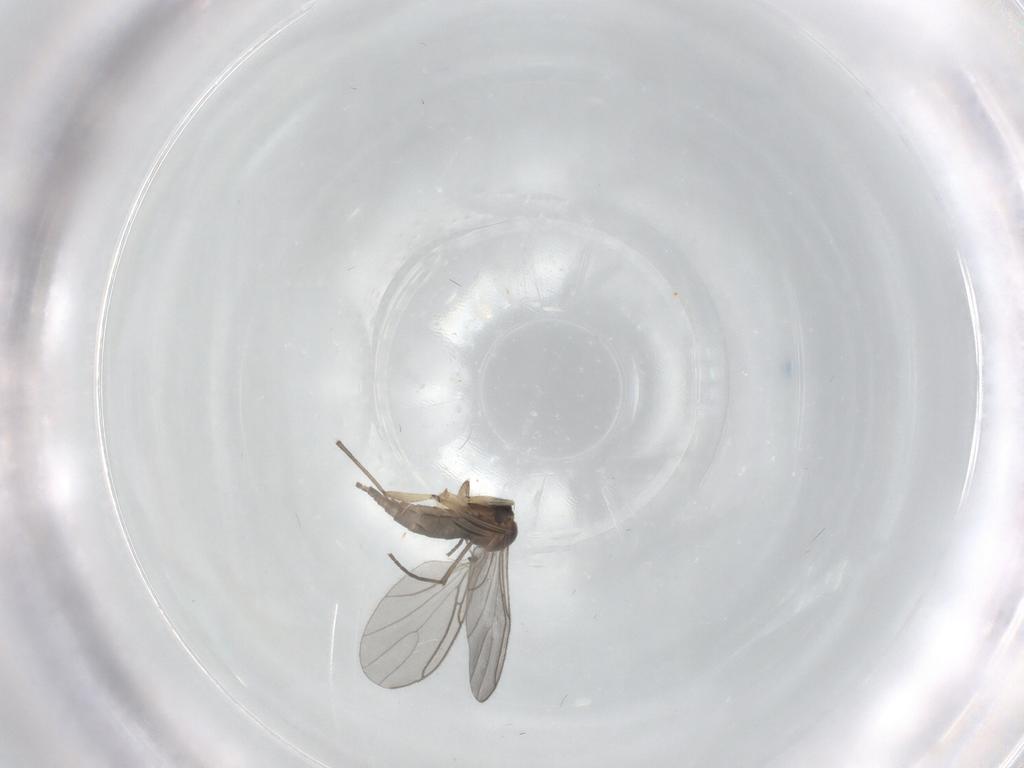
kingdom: Animalia
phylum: Arthropoda
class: Insecta
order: Diptera
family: Sciaridae
